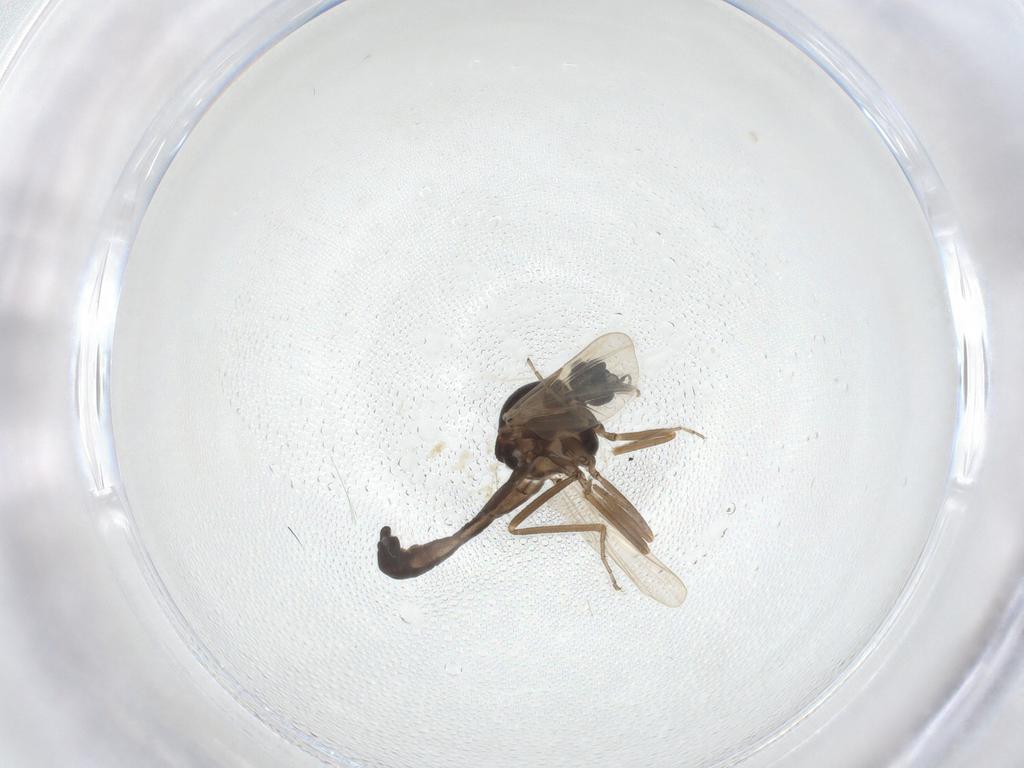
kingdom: Animalia
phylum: Arthropoda
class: Insecta
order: Diptera
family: Ceratopogonidae
